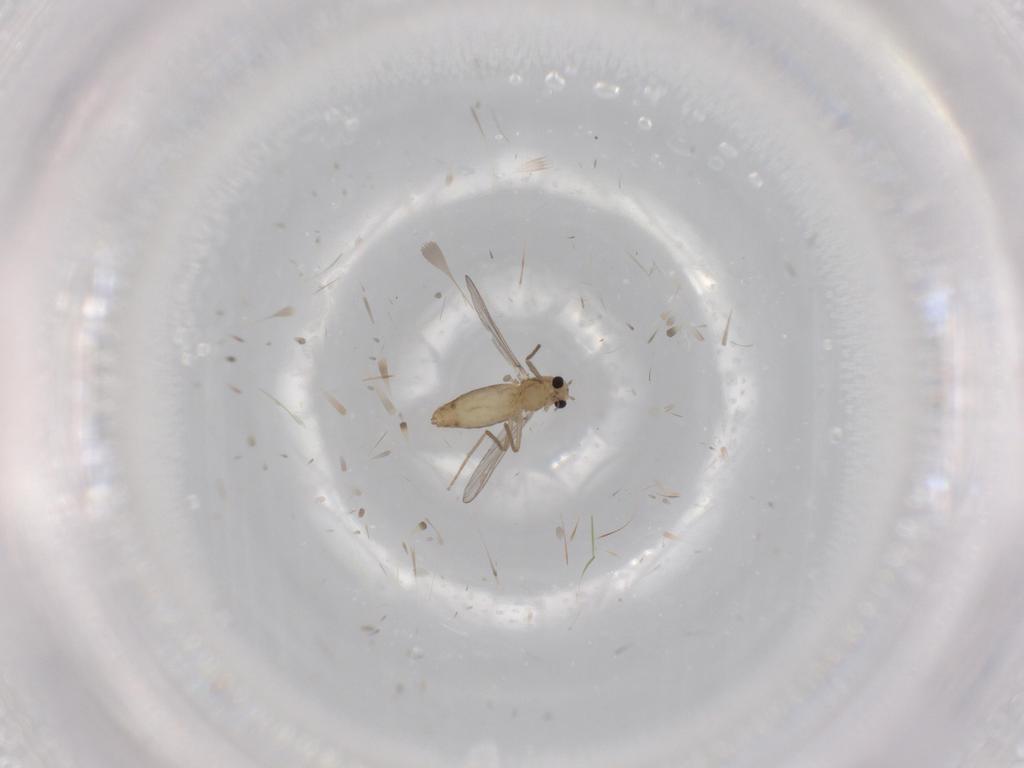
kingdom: Animalia
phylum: Arthropoda
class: Insecta
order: Diptera
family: Chironomidae
